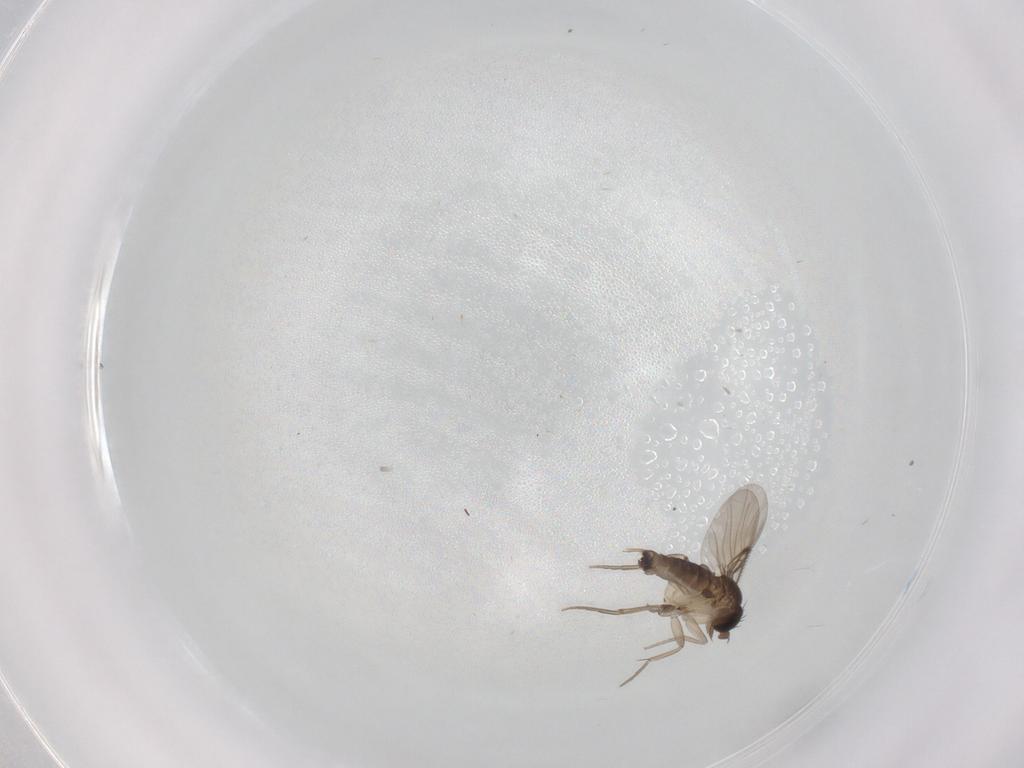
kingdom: Animalia
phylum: Arthropoda
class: Insecta
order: Diptera
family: Phoridae
